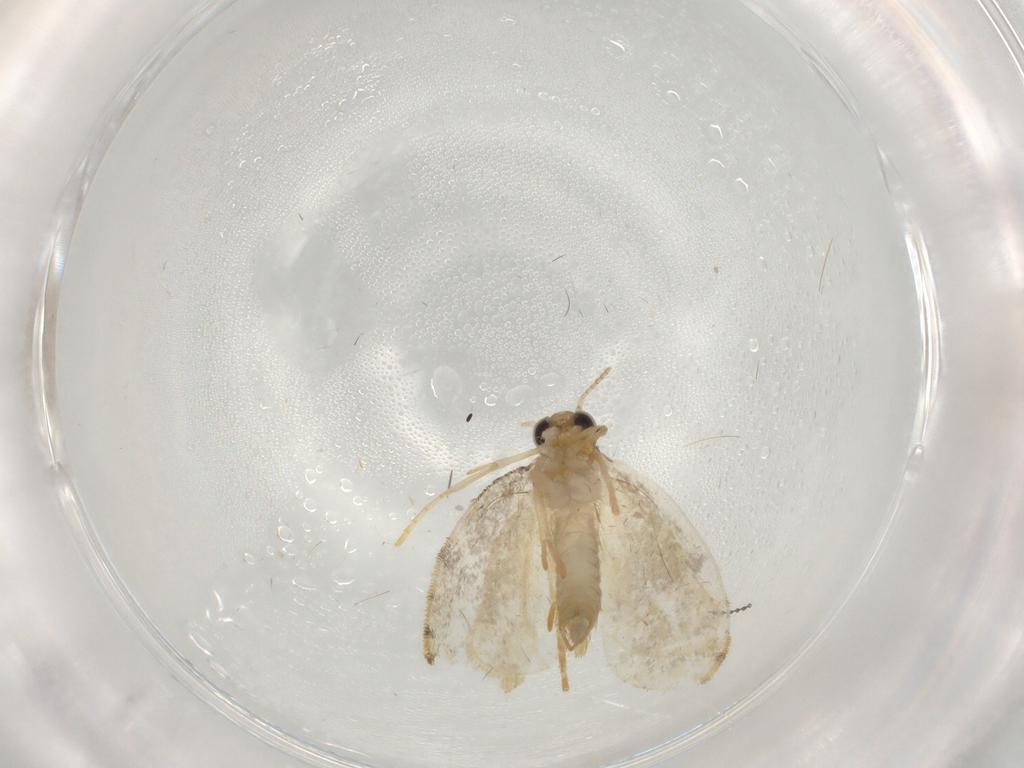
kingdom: Animalia
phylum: Arthropoda
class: Insecta
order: Lepidoptera
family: Psychidae
